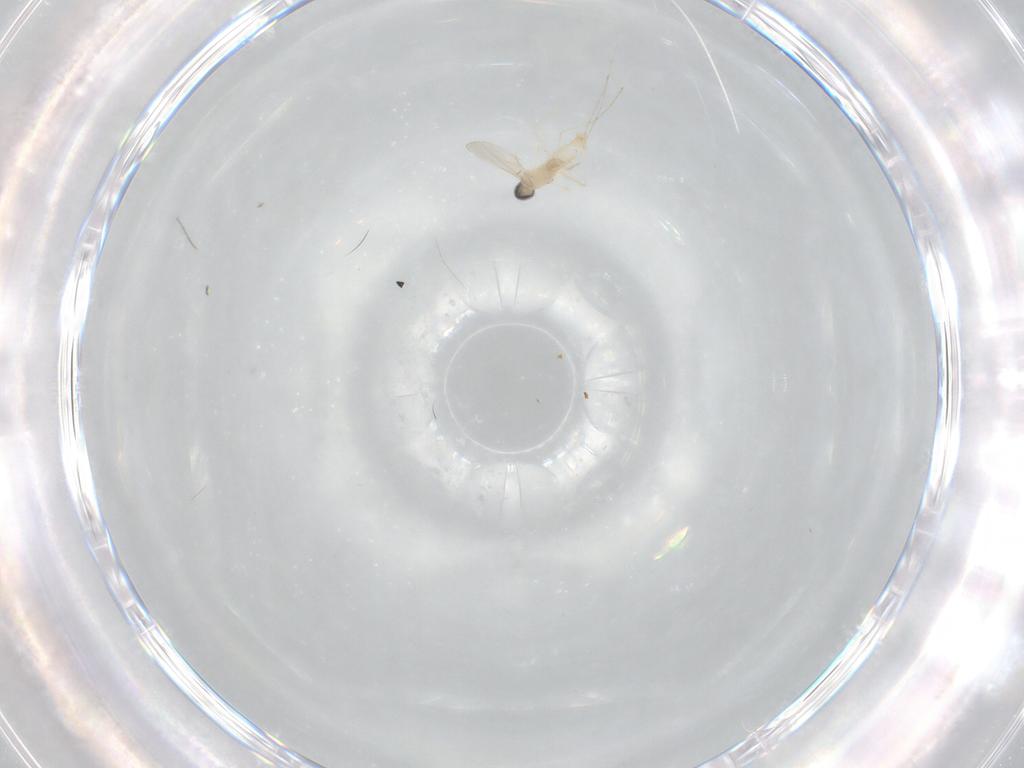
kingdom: Animalia
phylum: Arthropoda
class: Insecta
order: Diptera
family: Cecidomyiidae
